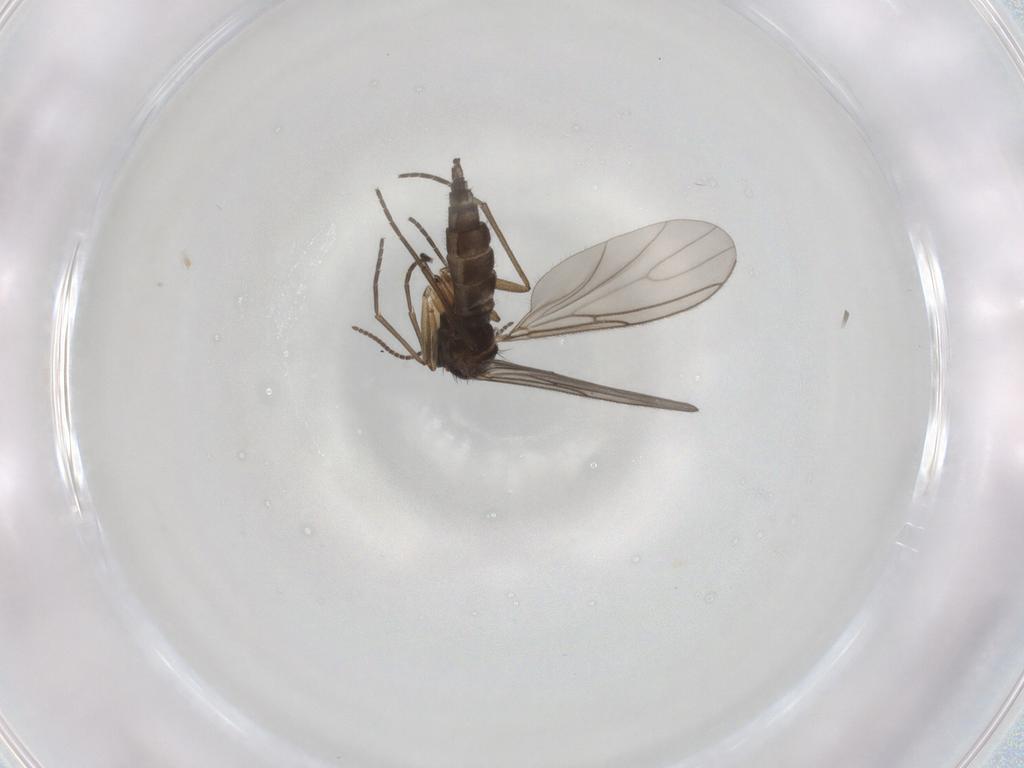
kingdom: Animalia
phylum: Arthropoda
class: Insecta
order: Diptera
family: Sciaridae
